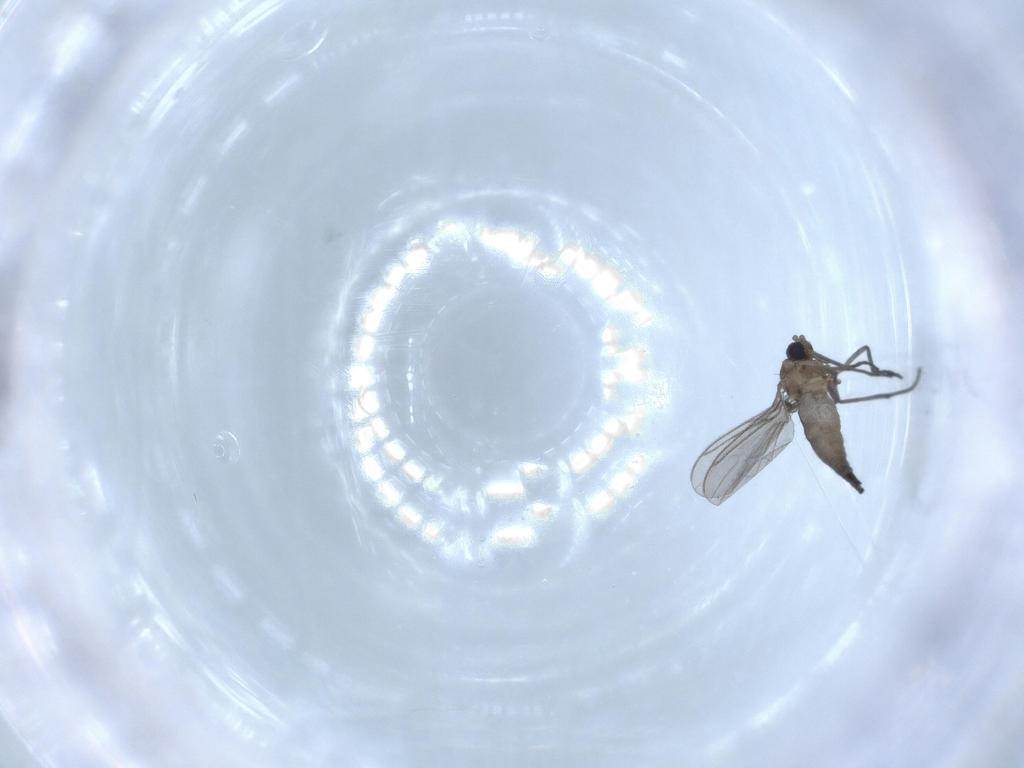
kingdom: Animalia
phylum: Arthropoda
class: Insecta
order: Diptera
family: Sciaridae
